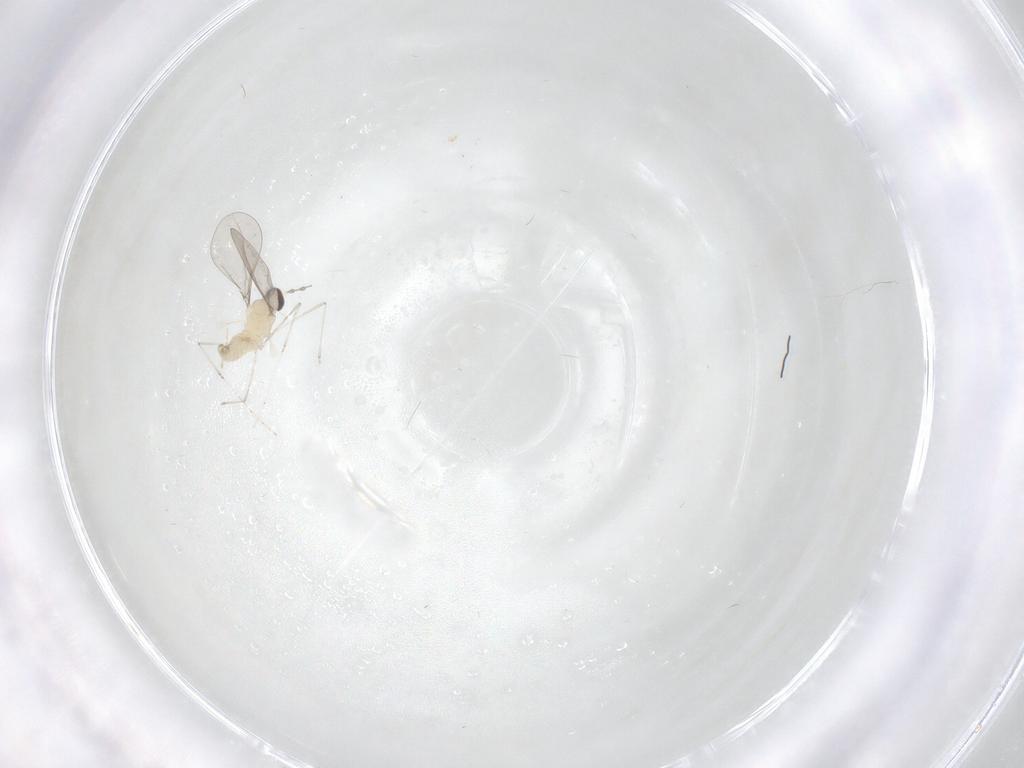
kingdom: Animalia
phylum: Arthropoda
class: Insecta
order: Diptera
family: Cecidomyiidae
